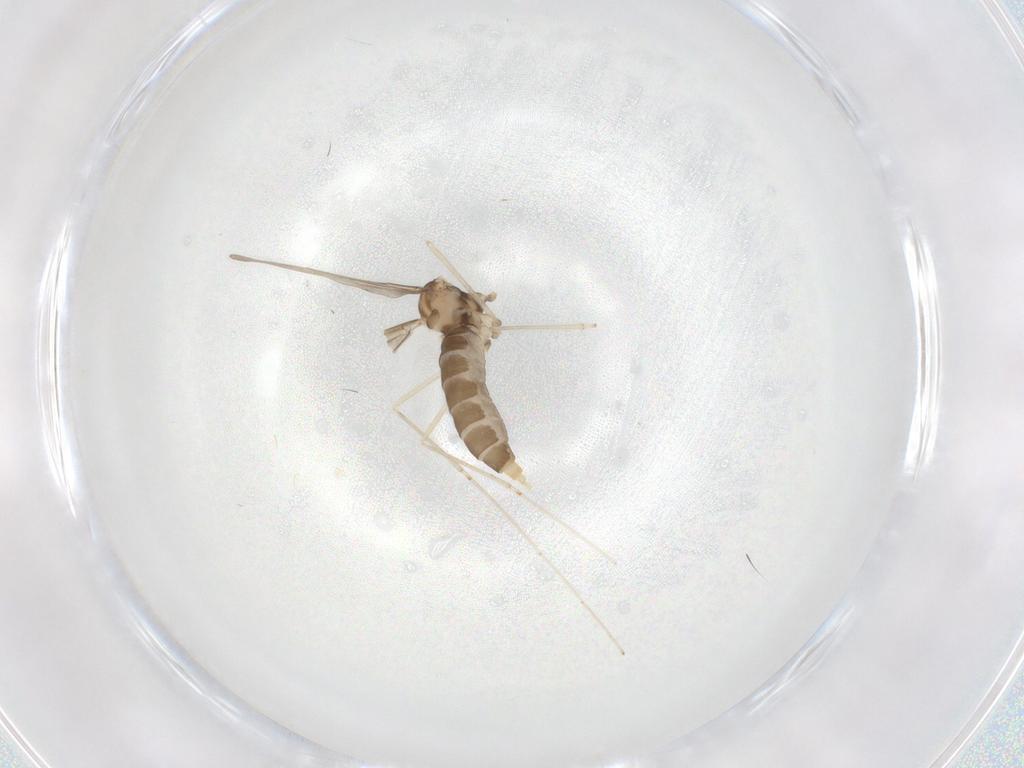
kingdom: Animalia
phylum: Arthropoda
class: Insecta
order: Diptera
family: Cecidomyiidae
